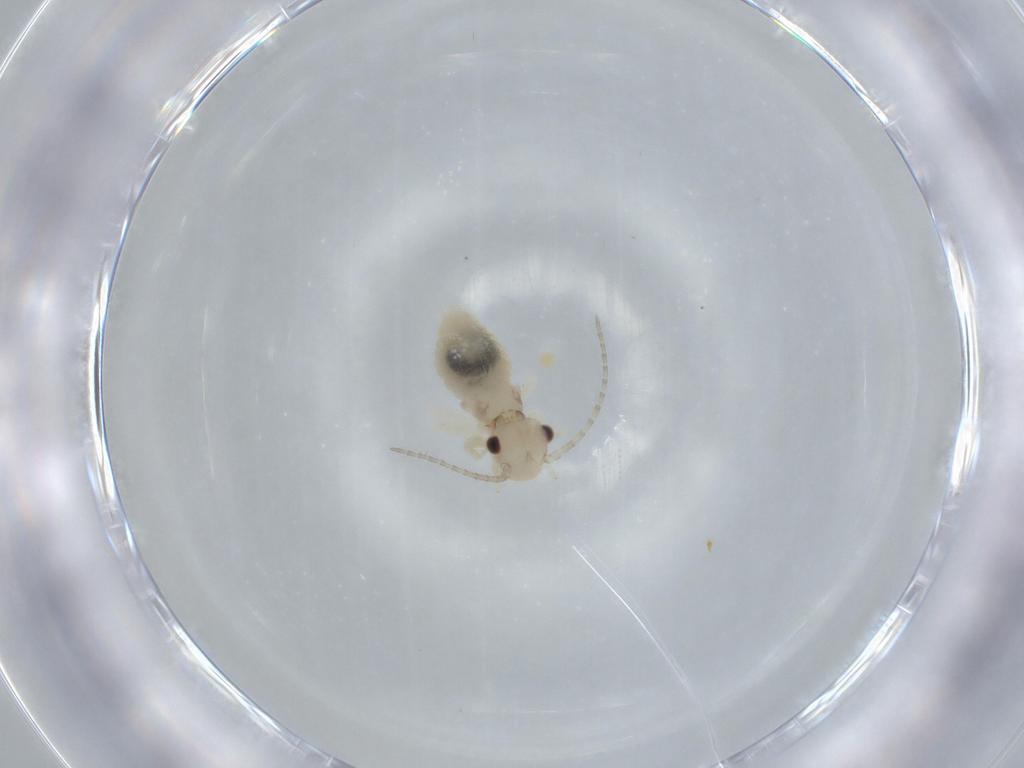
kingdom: Animalia
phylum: Arthropoda
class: Insecta
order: Psocodea
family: Amphipsocidae
